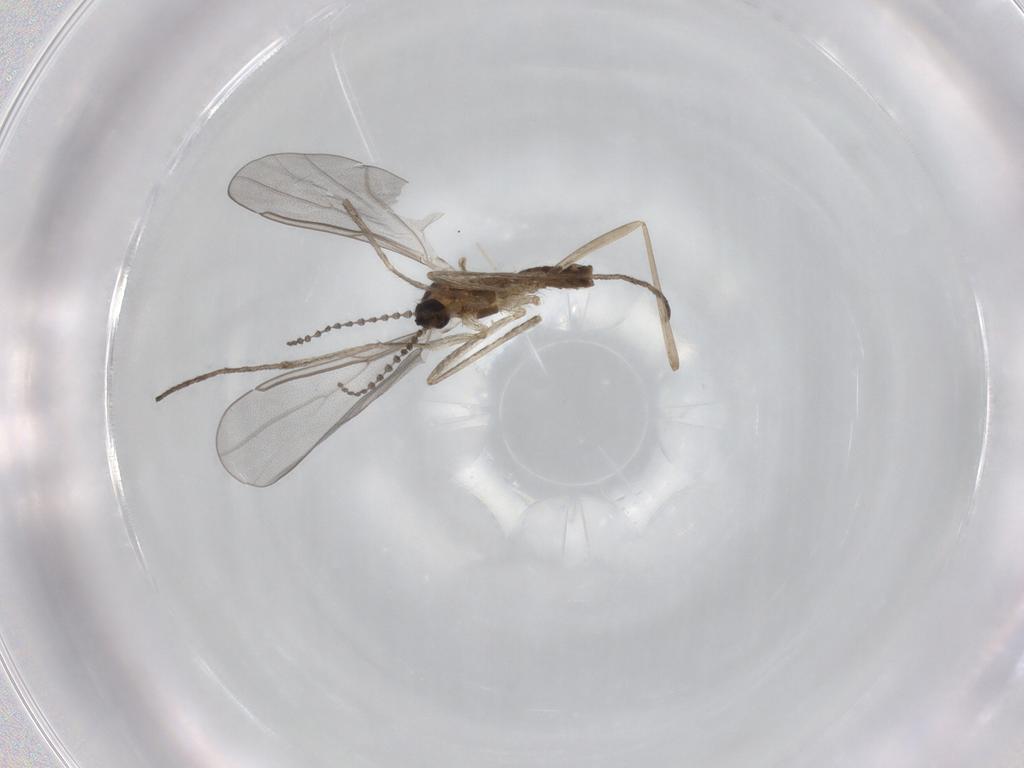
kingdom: Animalia
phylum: Arthropoda
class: Insecta
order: Diptera
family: Cecidomyiidae
